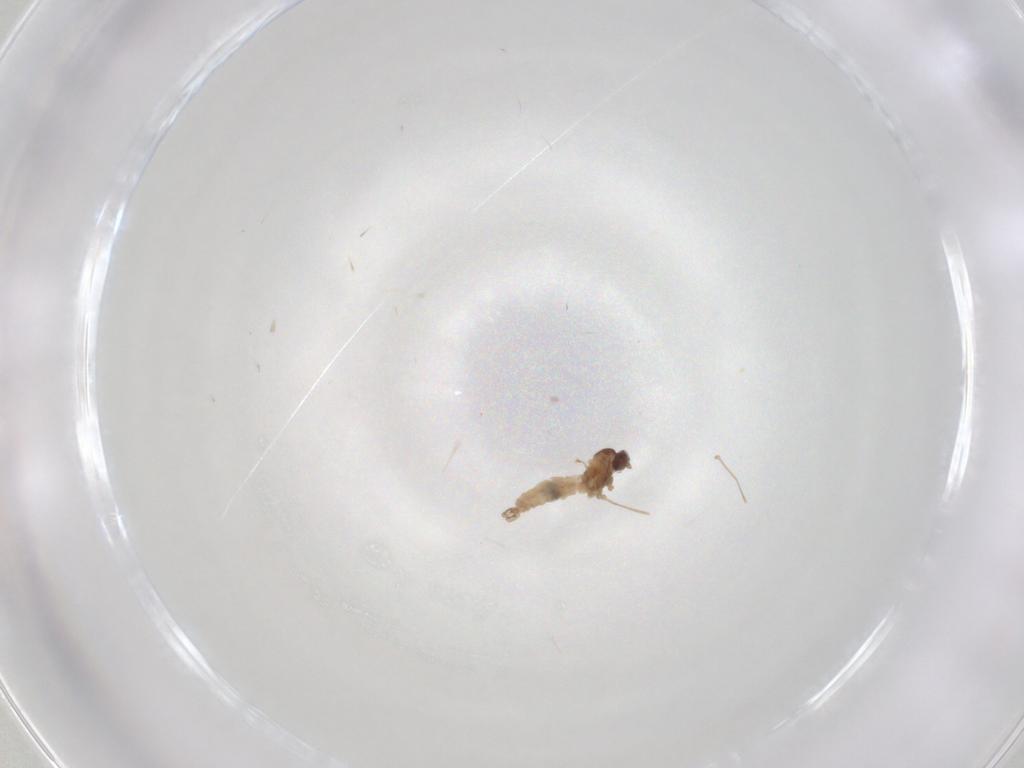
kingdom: Animalia
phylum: Arthropoda
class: Insecta
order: Diptera
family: Cecidomyiidae
